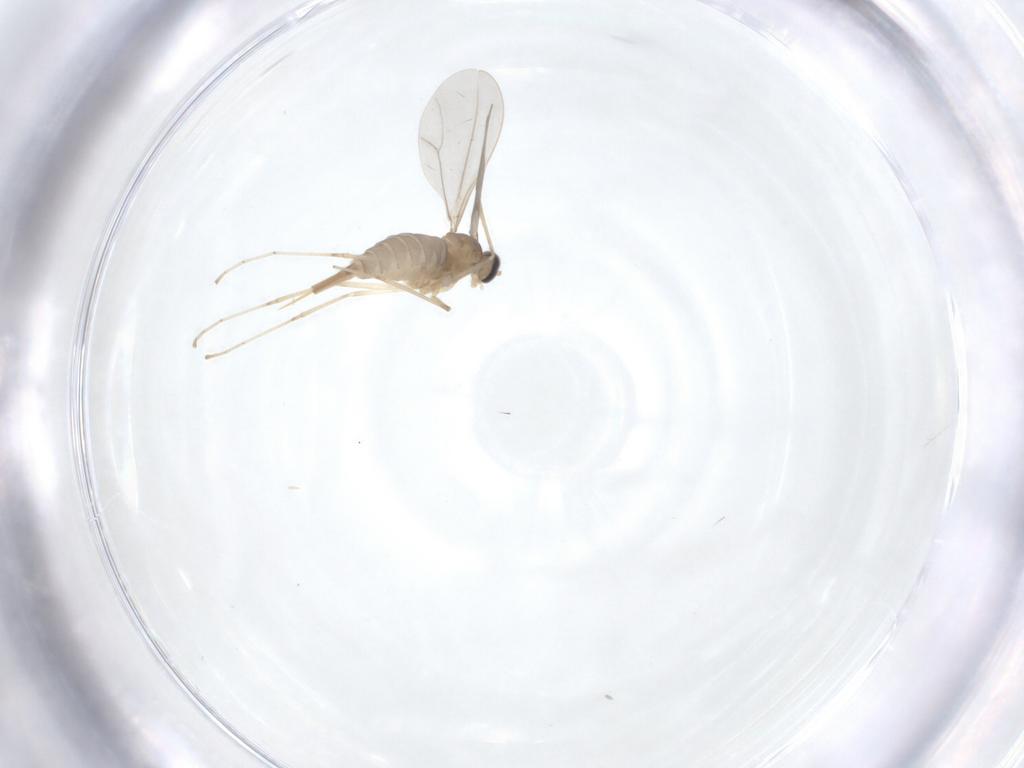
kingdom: Animalia
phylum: Arthropoda
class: Insecta
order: Diptera
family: Cecidomyiidae
